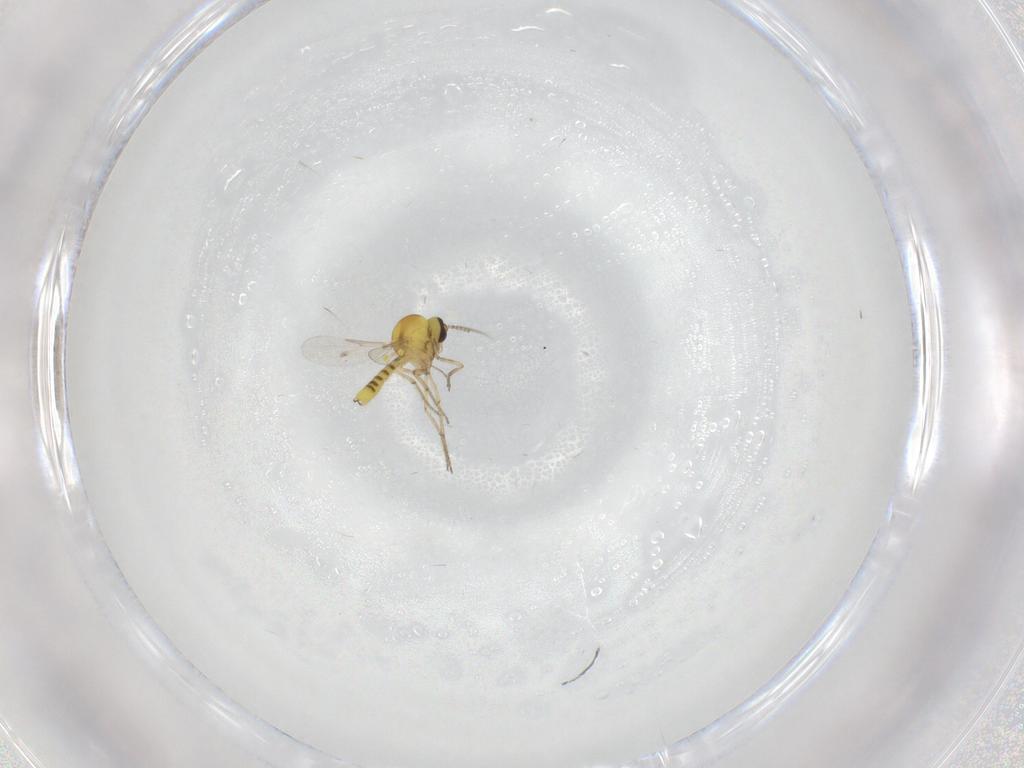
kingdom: Animalia
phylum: Arthropoda
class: Insecta
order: Diptera
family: Ceratopogonidae
